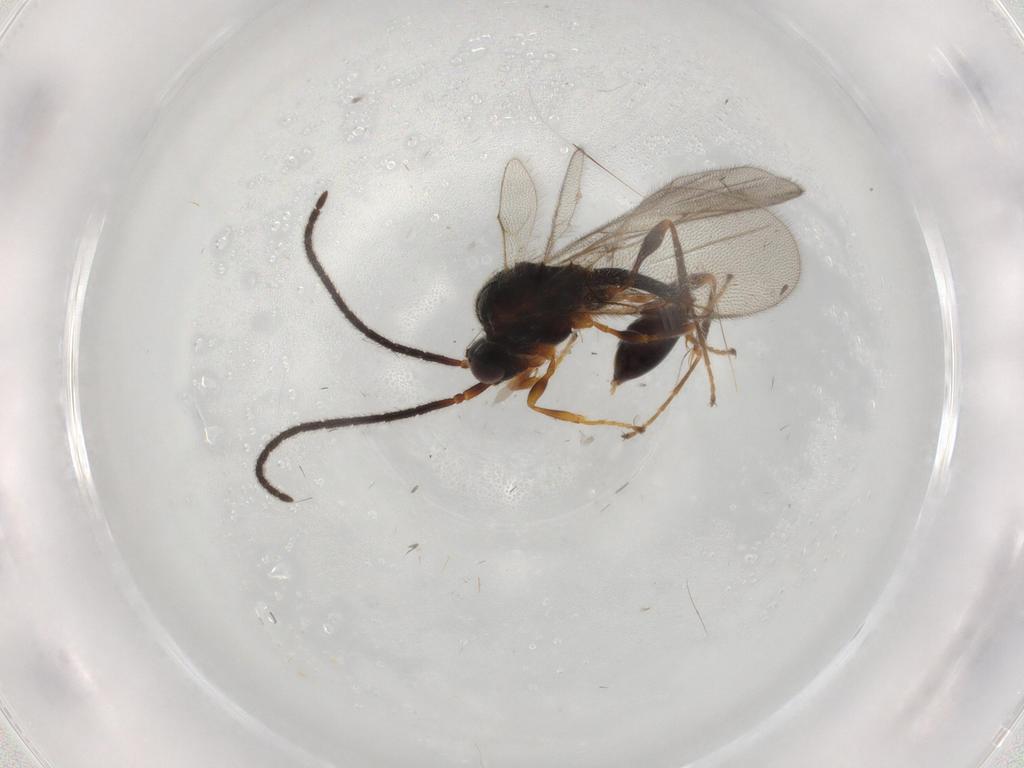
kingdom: Animalia
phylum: Arthropoda
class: Insecta
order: Hymenoptera
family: Diapriidae
